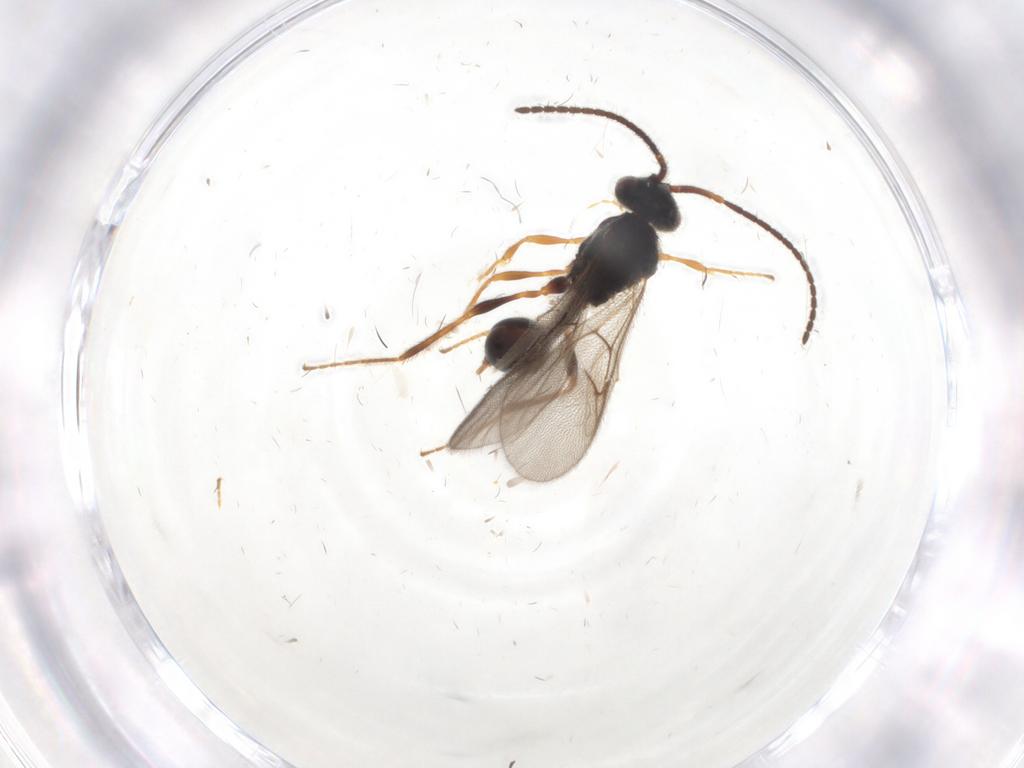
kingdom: Animalia
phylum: Arthropoda
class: Insecta
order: Hymenoptera
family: Diapriidae
